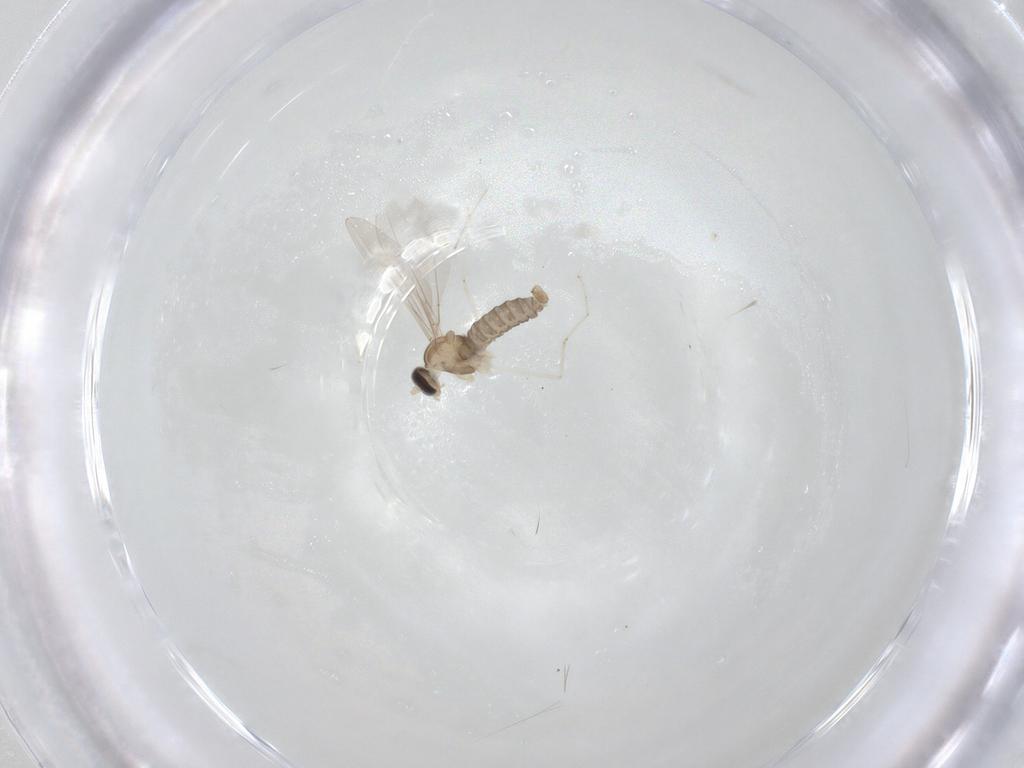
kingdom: Animalia
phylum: Arthropoda
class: Insecta
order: Diptera
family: Cecidomyiidae
